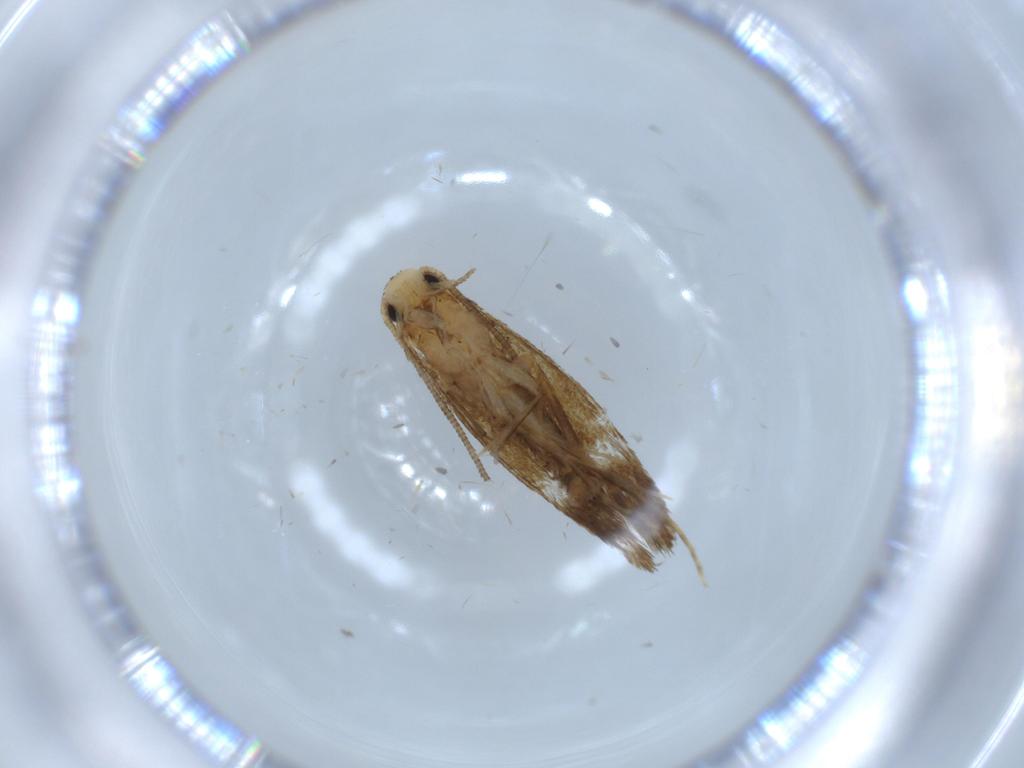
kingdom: Animalia
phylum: Arthropoda
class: Insecta
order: Lepidoptera
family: Tineidae
